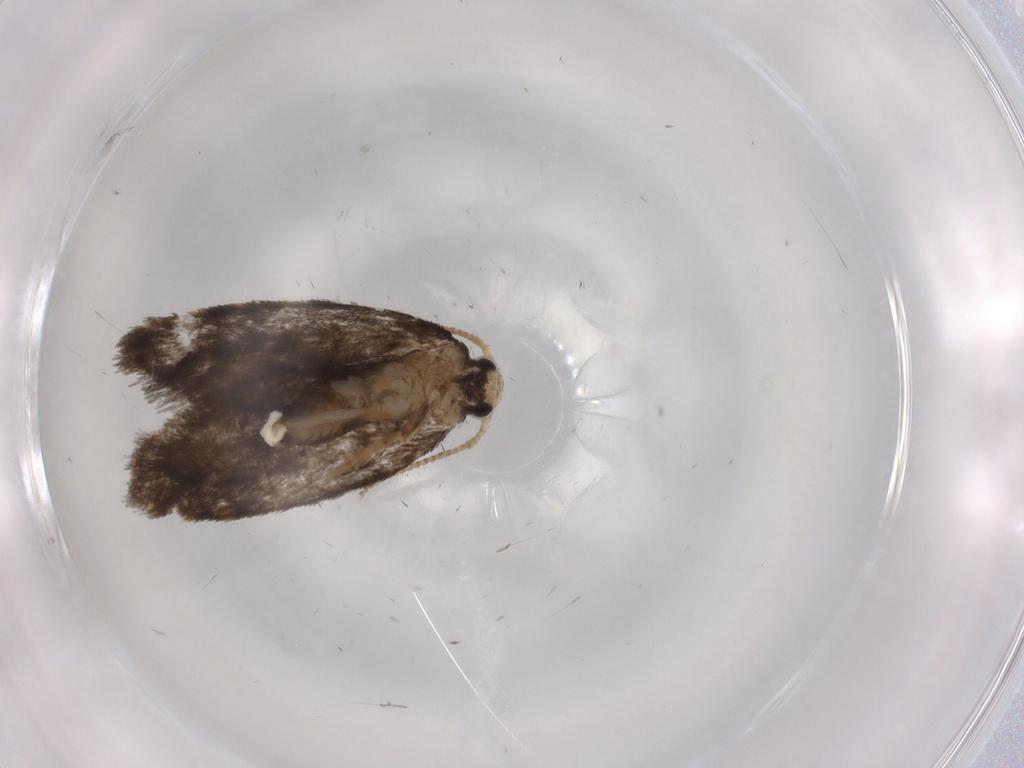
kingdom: Animalia
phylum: Arthropoda
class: Insecta
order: Lepidoptera
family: Psychidae
